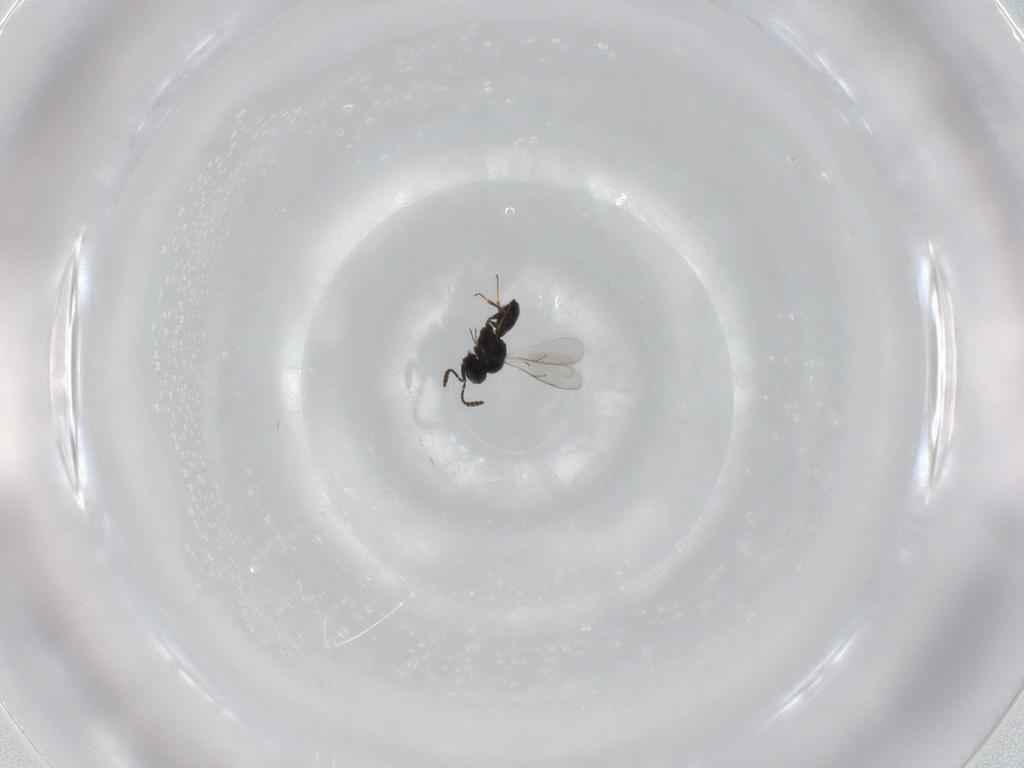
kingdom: Animalia
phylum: Arthropoda
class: Insecta
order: Hymenoptera
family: Scelionidae
